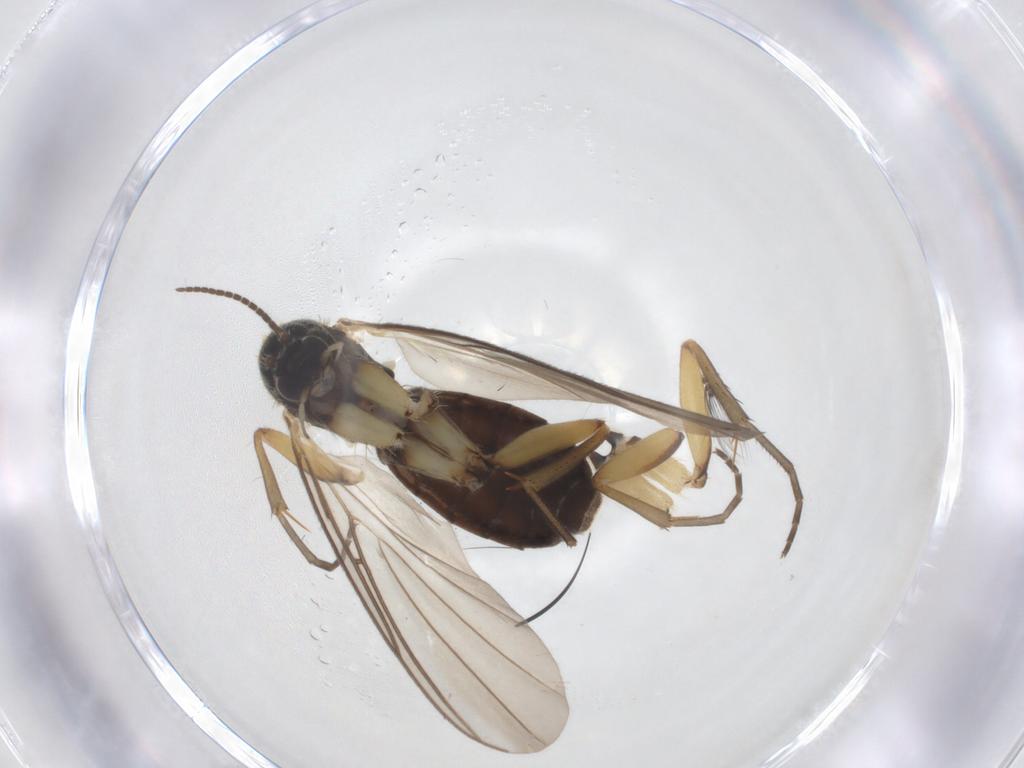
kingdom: Animalia
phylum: Arthropoda
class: Insecta
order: Diptera
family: Mycetophilidae
